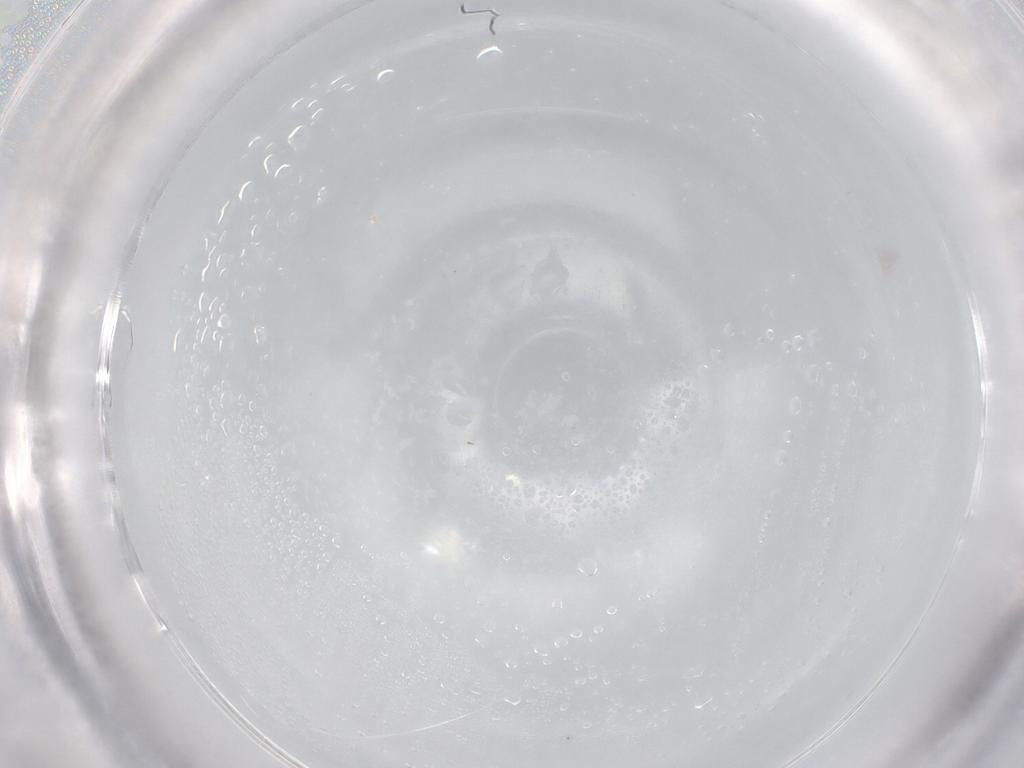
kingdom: Animalia
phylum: Arthropoda
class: Collembola
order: Entomobryomorpha
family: Entomobryidae
